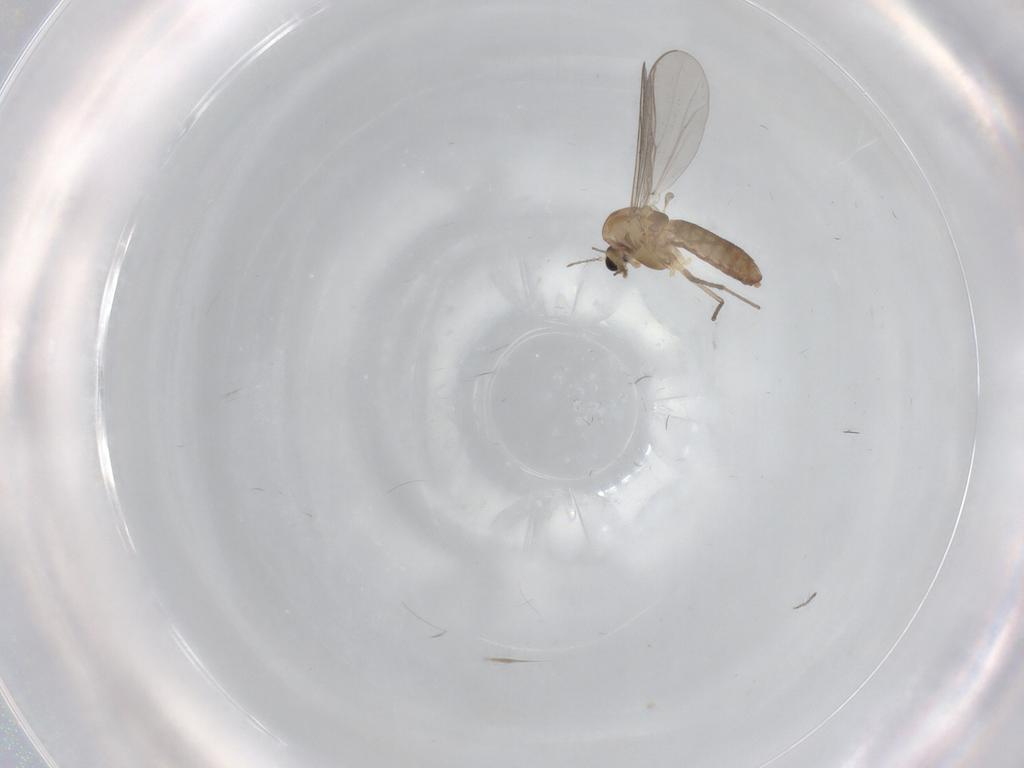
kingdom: Animalia
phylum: Arthropoda
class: Insecta
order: Diptera
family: Chironomidae
